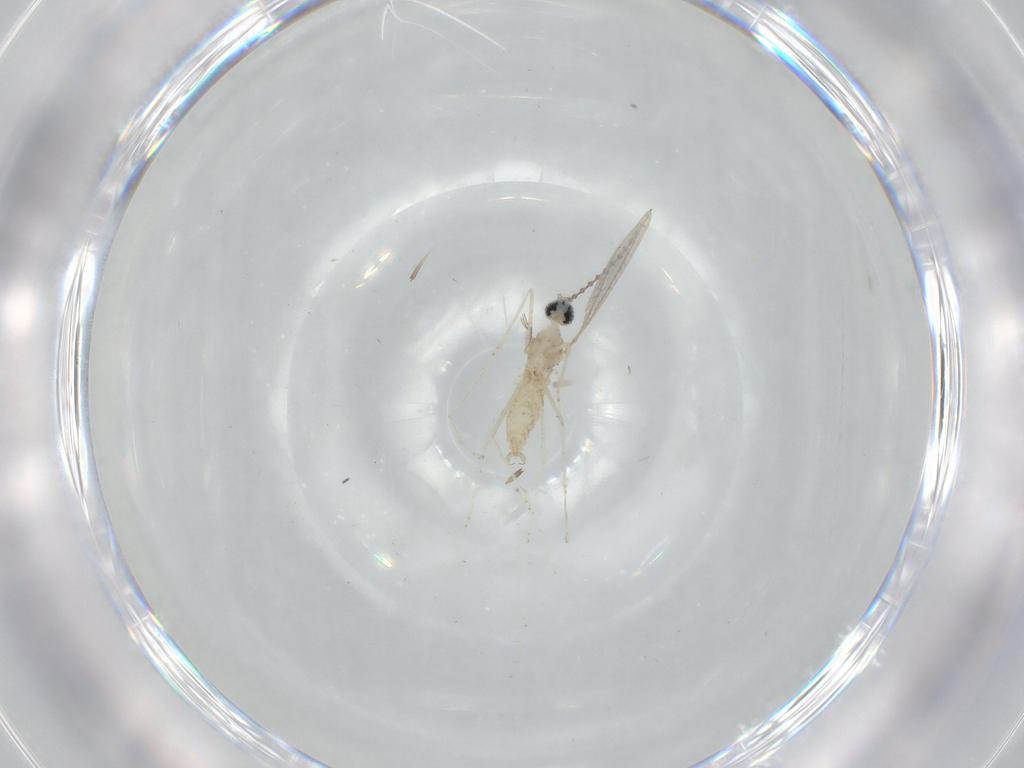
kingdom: Animalia
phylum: Arthropoda
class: Insecta
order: Diptera
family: Cecidomyiidae
